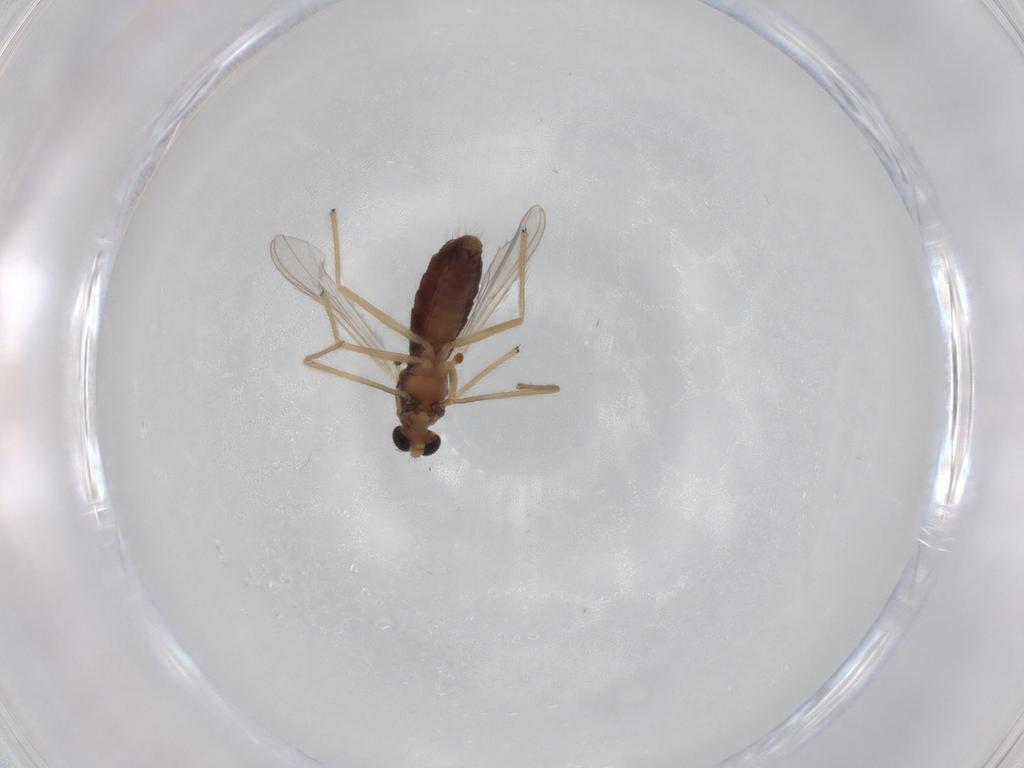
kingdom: Animalia
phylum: Arthropoda
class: Insecta
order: Diptera
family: Chironomidae
